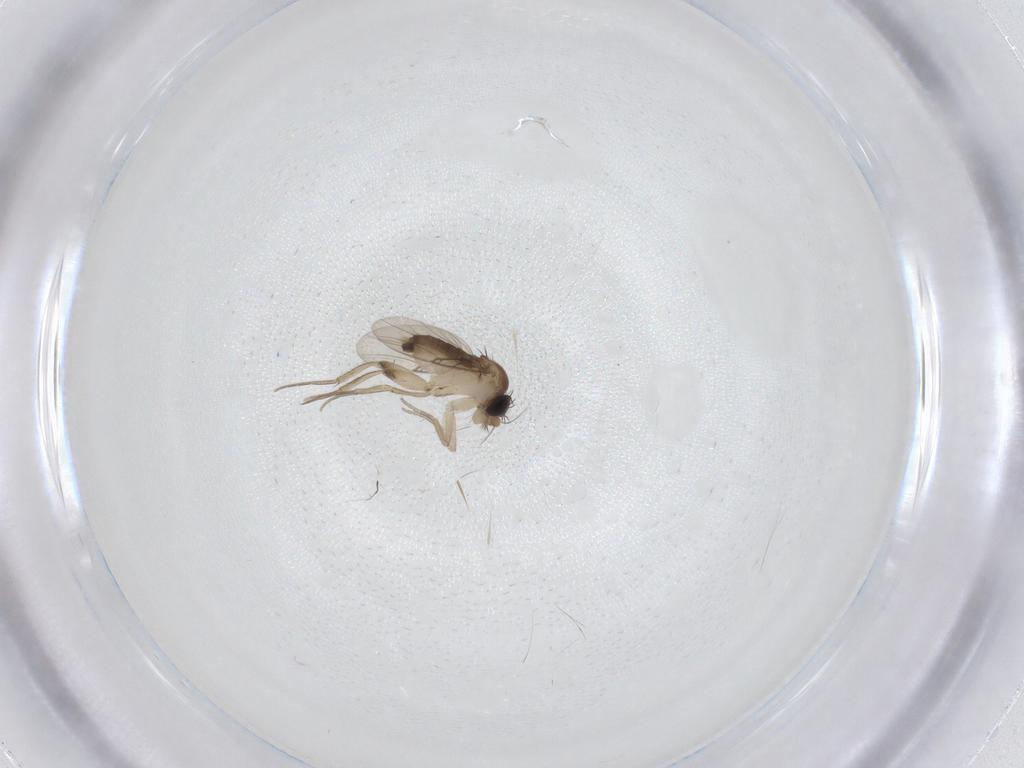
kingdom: Animalia
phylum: Arthropoda
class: Insecta
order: Diptera
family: Phoridae
